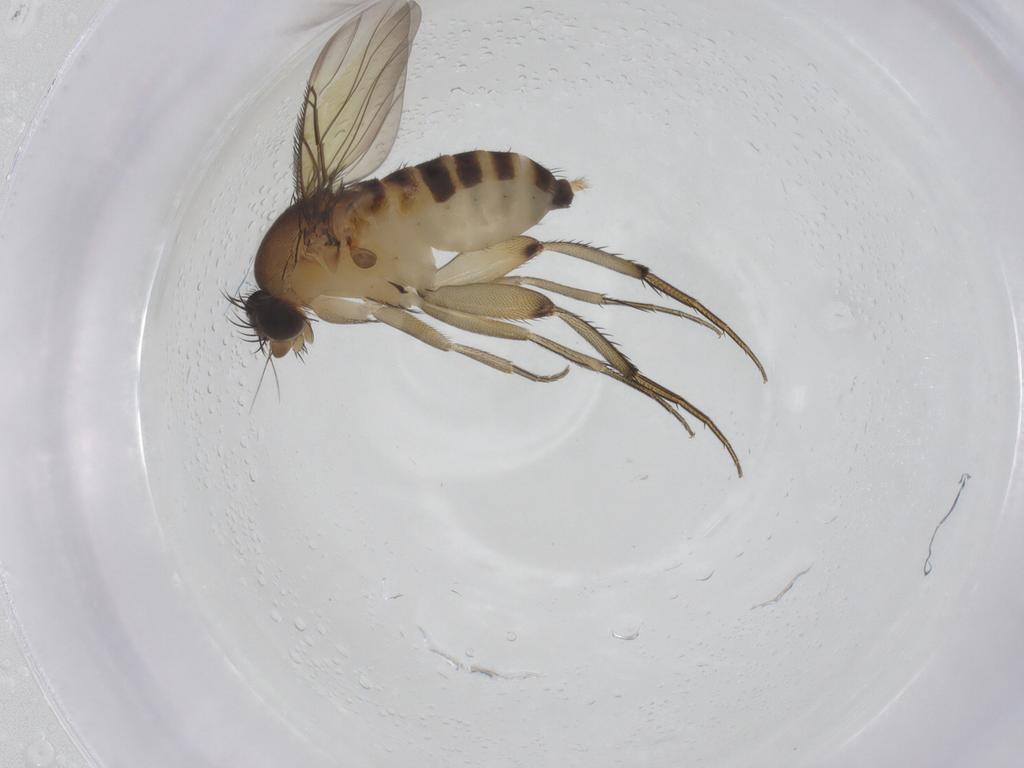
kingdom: Animalia
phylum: Arthropoda
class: Insecta
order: Diptera
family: Phoridae
